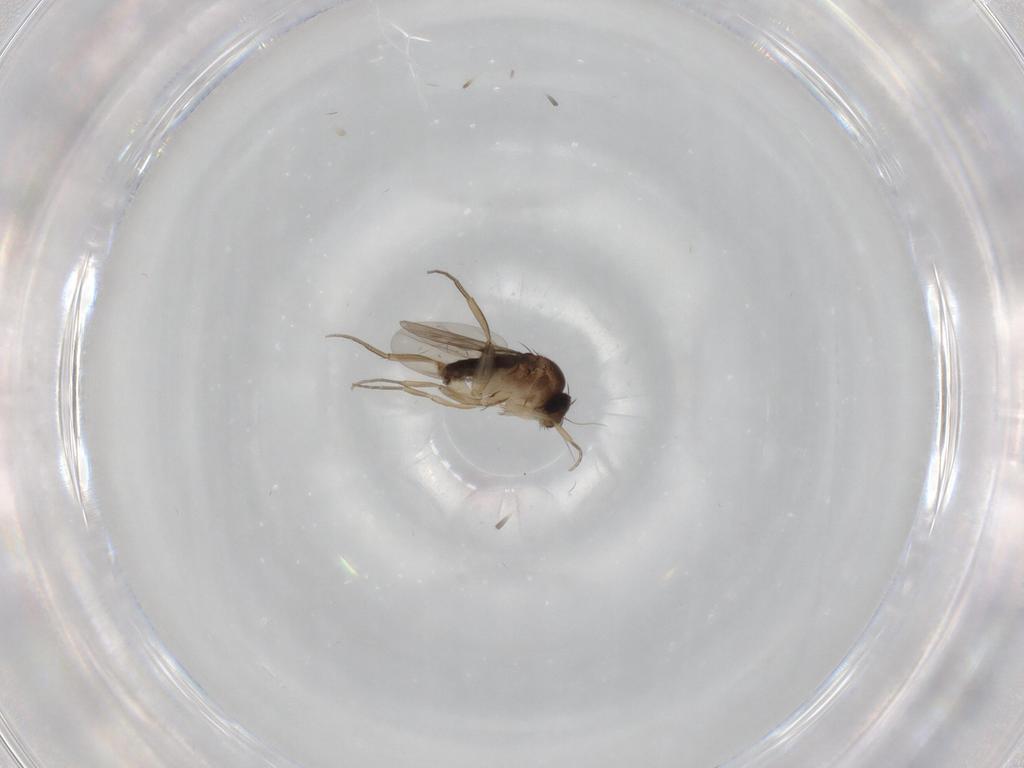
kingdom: Animalia
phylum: Arthropoda
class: Insecta
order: Diptera
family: Phoridae
